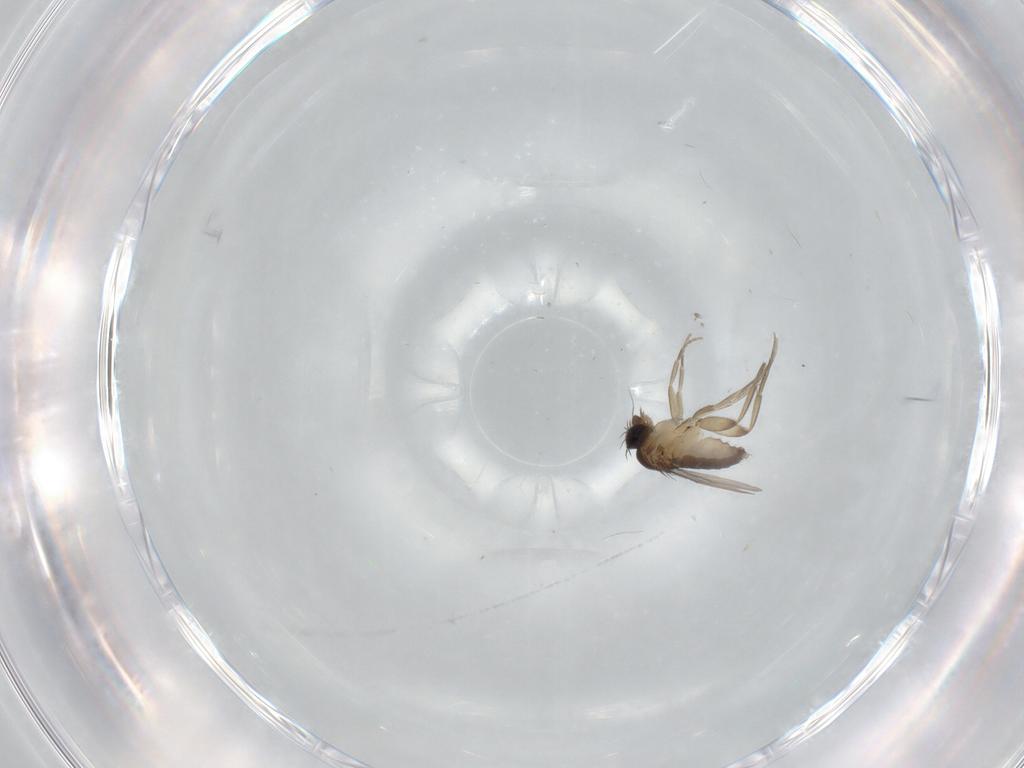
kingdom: Animalia
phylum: Arthropoda
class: Insecta
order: Diptera
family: Phoridae
